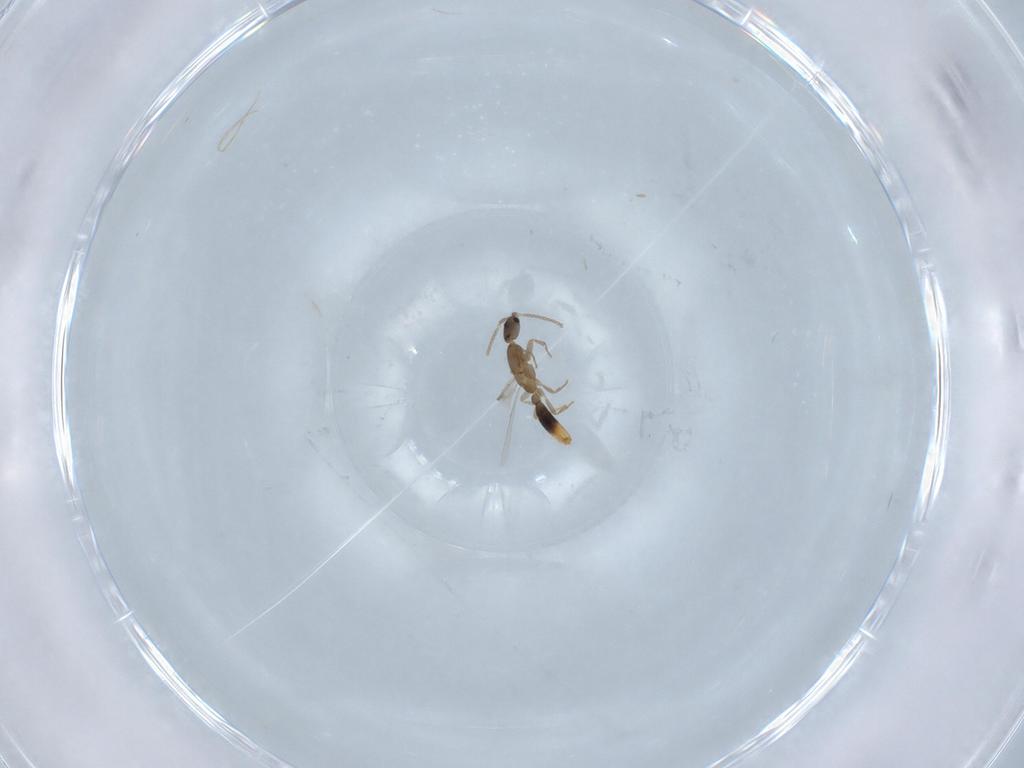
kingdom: Animalia
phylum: Arthropoda
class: Insecta
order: Hymenoptera
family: Formicidae
